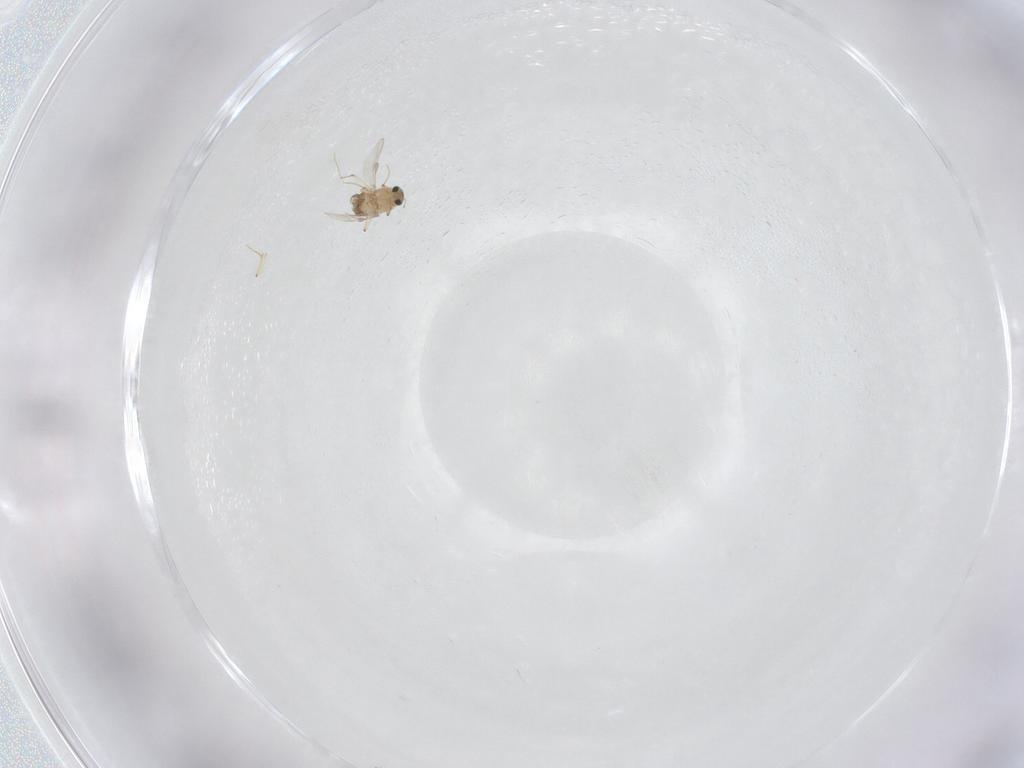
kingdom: Animalia
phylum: Arthropoda
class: Insecta
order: Diptera
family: Chironomidae
